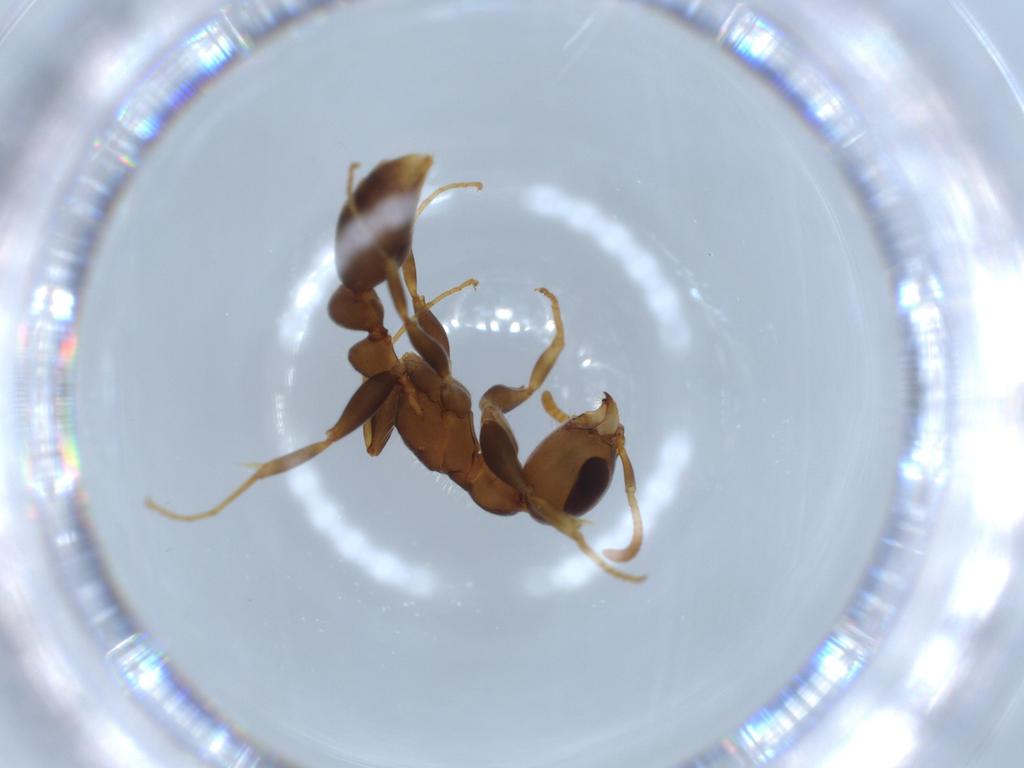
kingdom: Animalia
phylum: Arthropoda
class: Insecta
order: Hymenoptera
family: Formicidae
